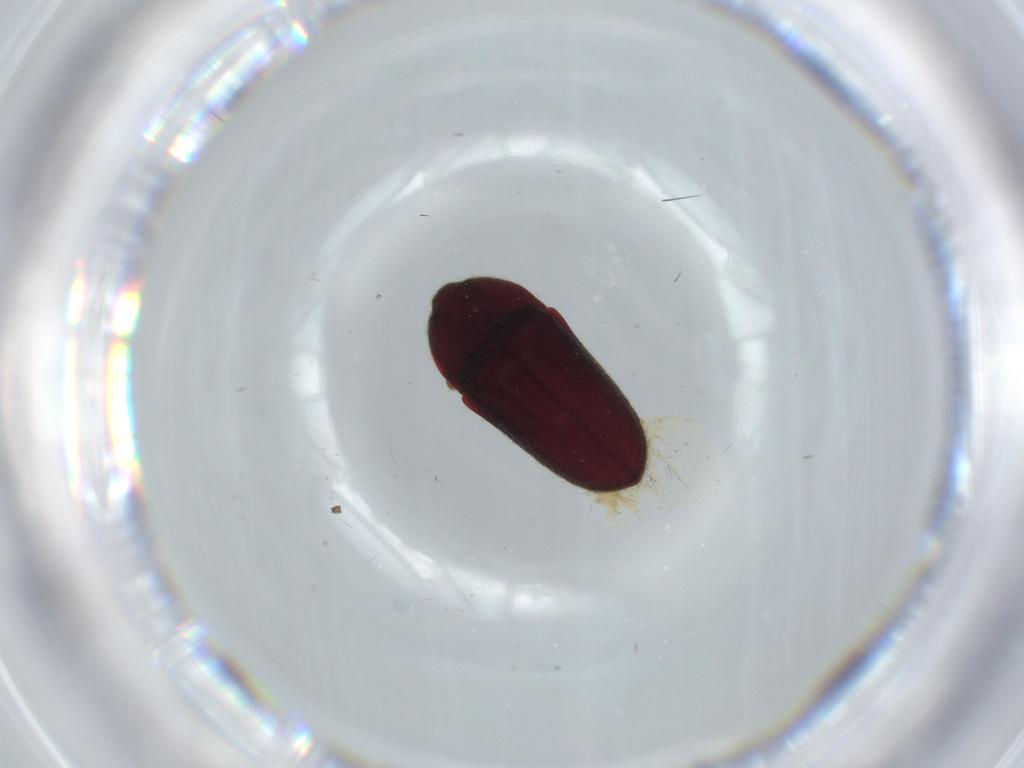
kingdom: Animalia
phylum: Arthropoda
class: Insecta
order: Coleoptera
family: Throscidae
